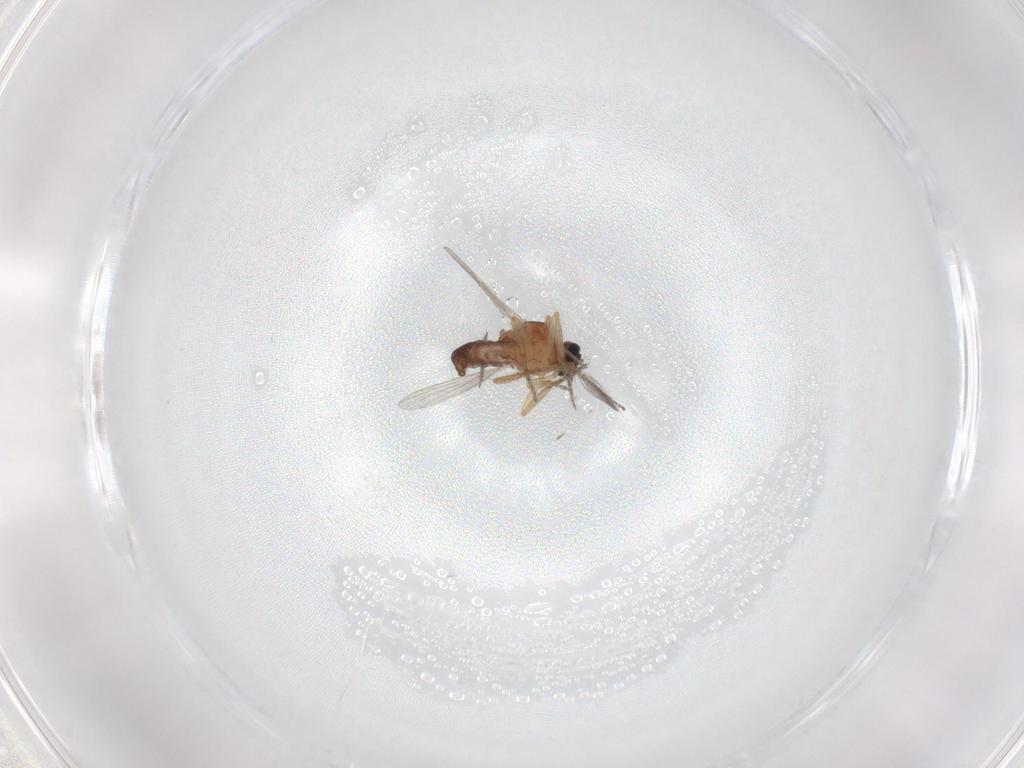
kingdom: Animalia
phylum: Arthropoda
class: Insecta
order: Diptera
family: Ceratopogonidae
